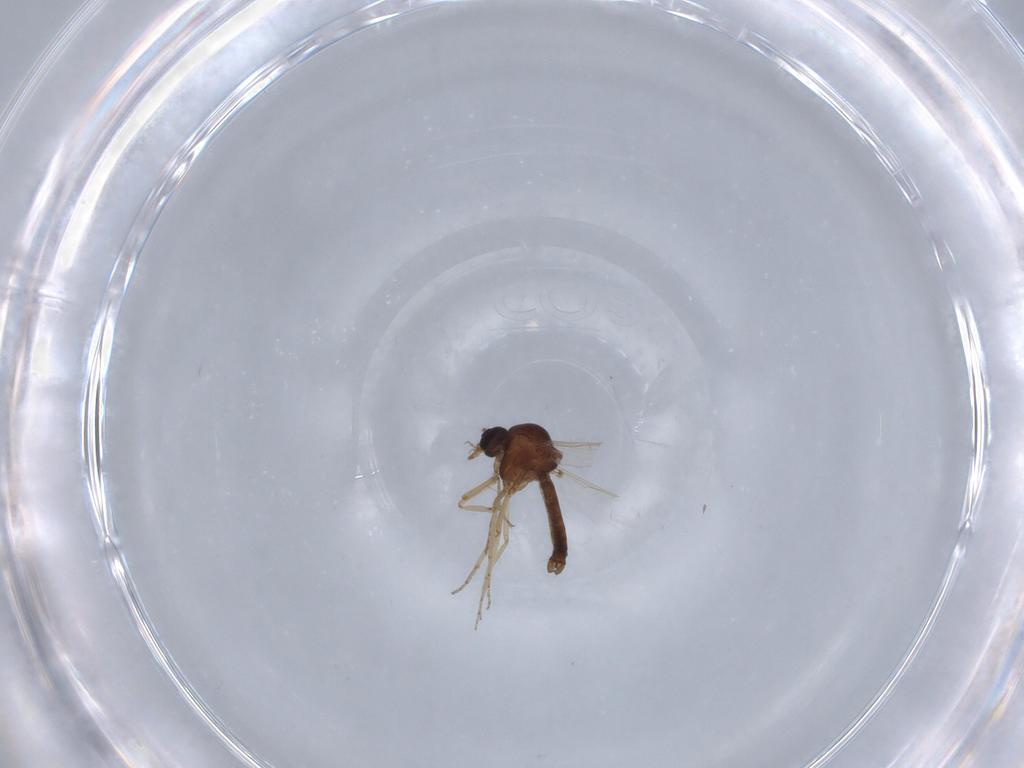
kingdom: Animalia
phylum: Arthropoda
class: Insecta
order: Diptera
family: Ceratopogonidae
